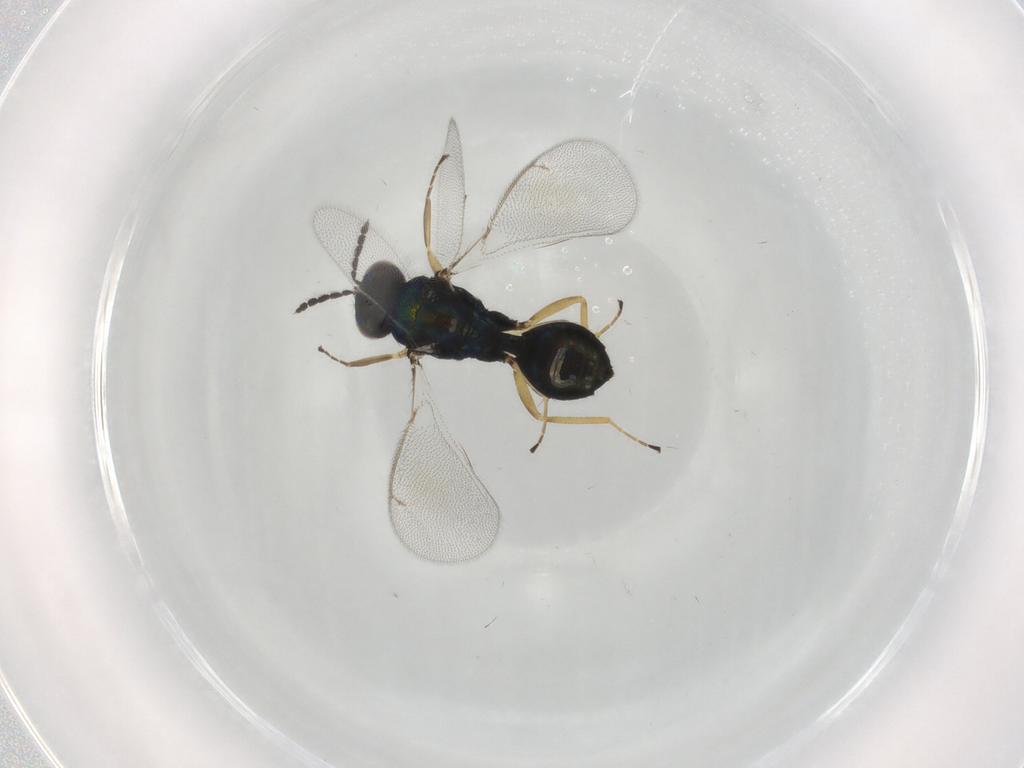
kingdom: Animalia
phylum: Arthropoda
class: Insecta
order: Hymenoptera
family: Eulophidae
